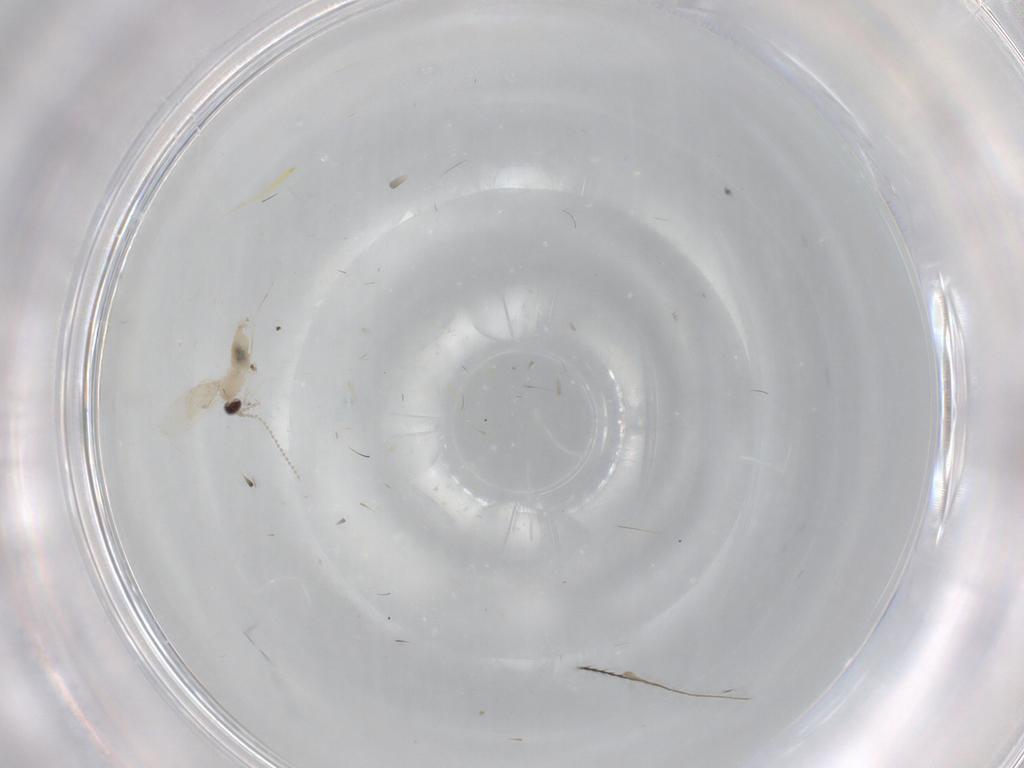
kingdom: Animalia
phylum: Arthropoda
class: Insecta
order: Diptera
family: Cecidomyiidae
